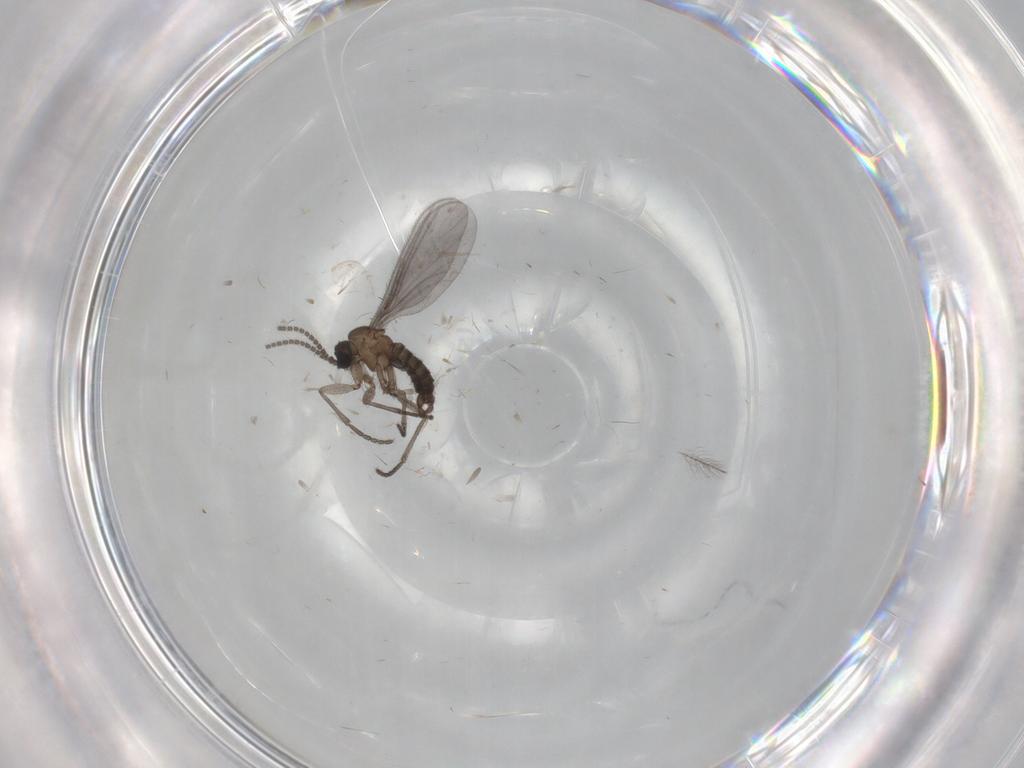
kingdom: Animalia
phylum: Arthropoda
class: Insecta
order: Diptera
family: Sciaridae
